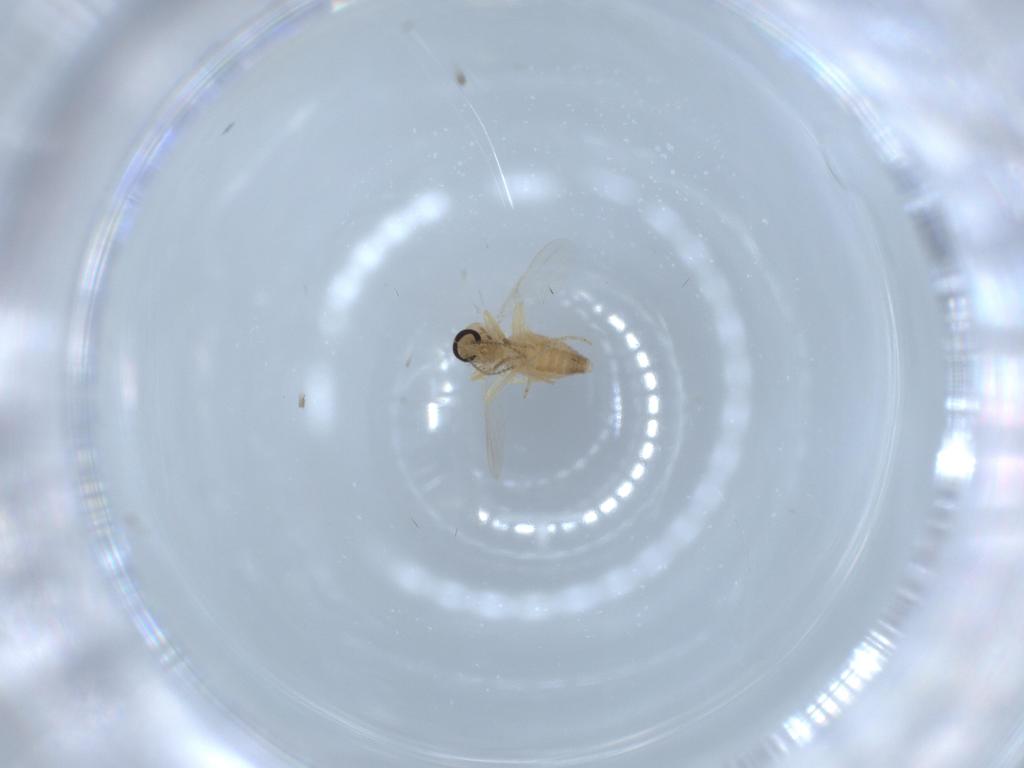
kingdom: Animalia
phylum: Arthropoda
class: Insecta
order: Diptera
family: Ceratopogonidae
